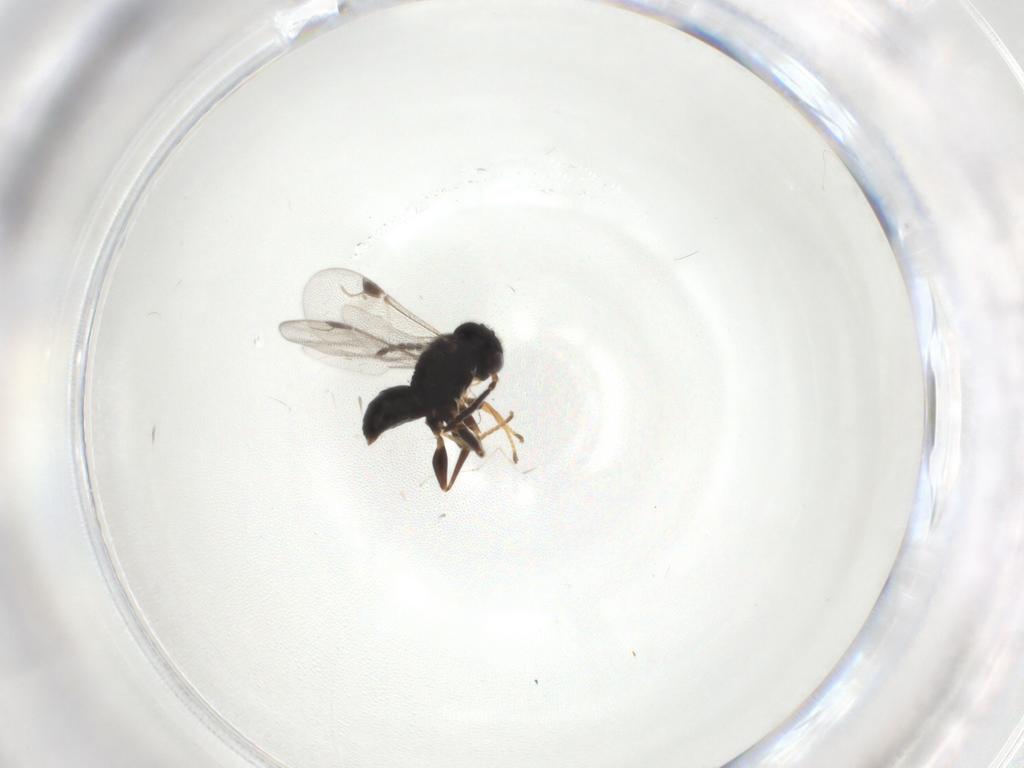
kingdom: Animalia
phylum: Arthropoda
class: Insecta
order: Hymenoptera
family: Dryinidae
